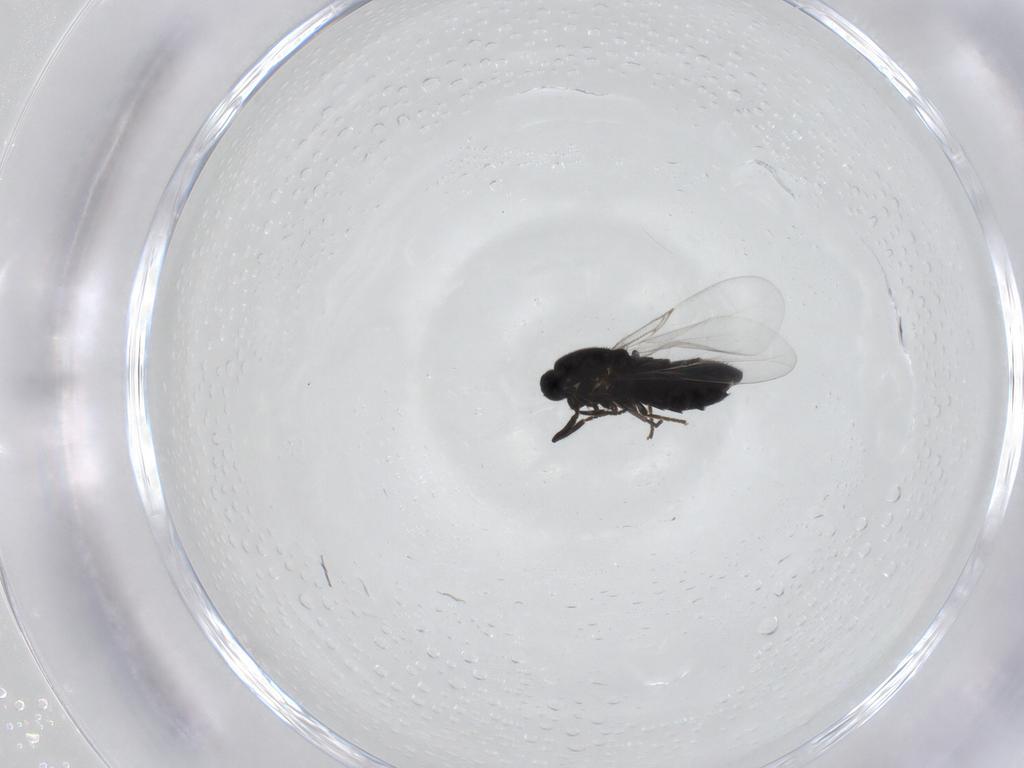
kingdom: Animalia
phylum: Arthropoda
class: Insecta
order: Diptera
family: Scatopsidae
